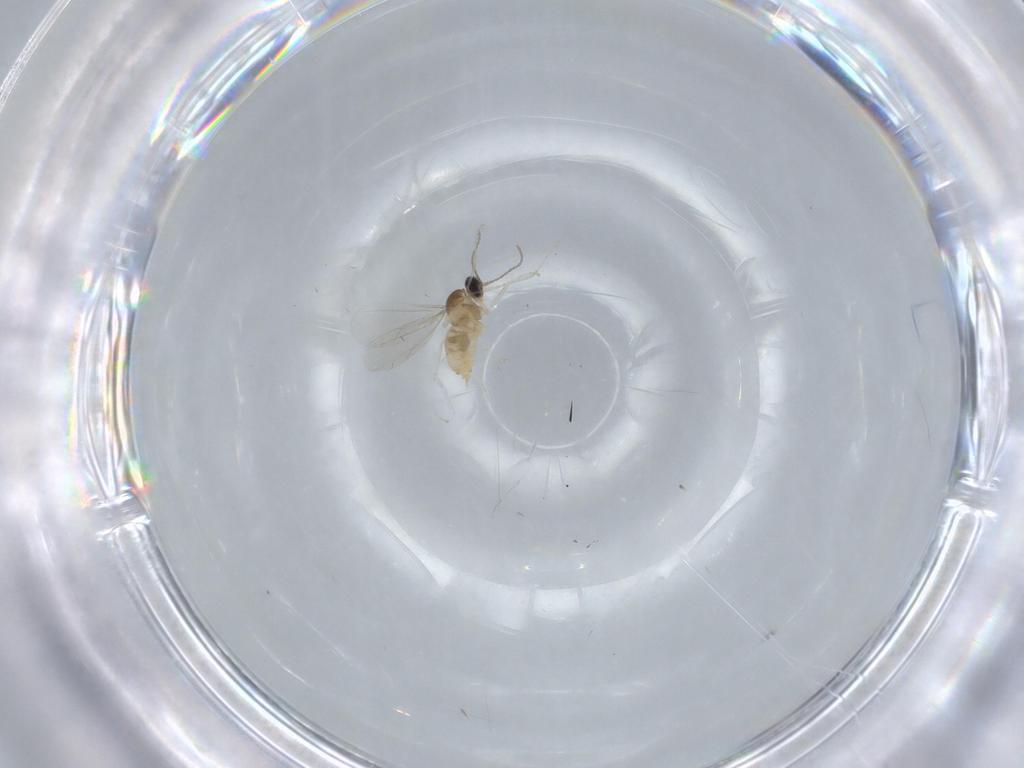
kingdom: Animalia
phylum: Arthropoda
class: Insecta
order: Diptera
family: Cecidomyiidae
